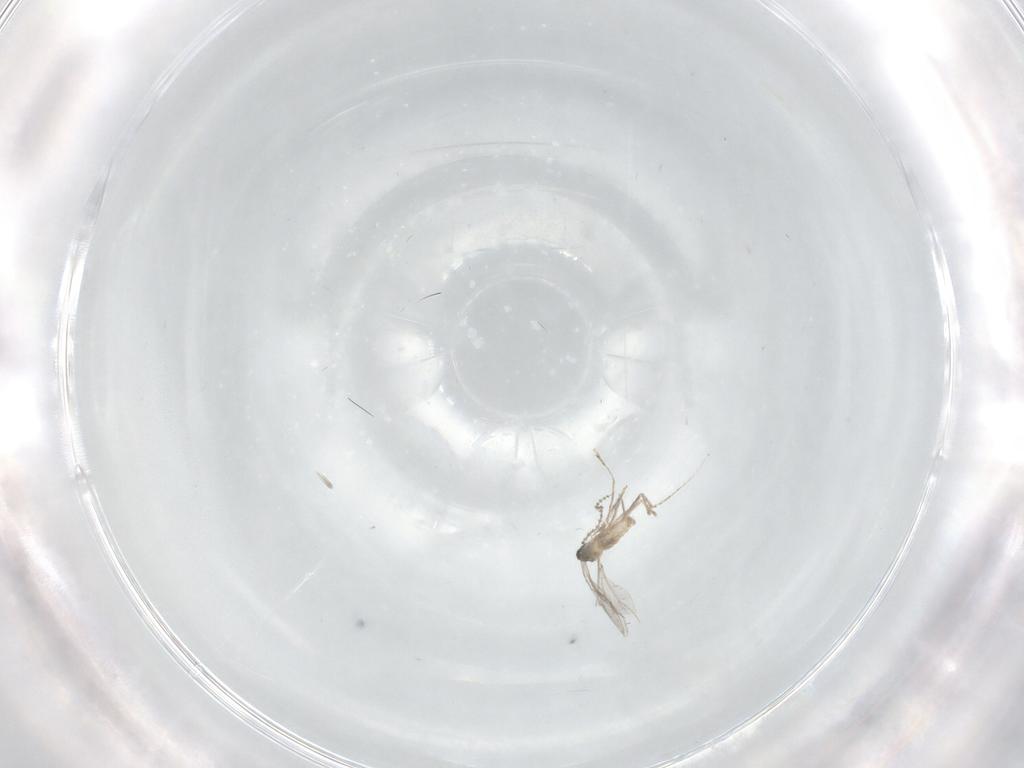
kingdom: Animalia
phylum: Arthropoda
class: Insecta
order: Diptera
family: Cecidomyiidae
